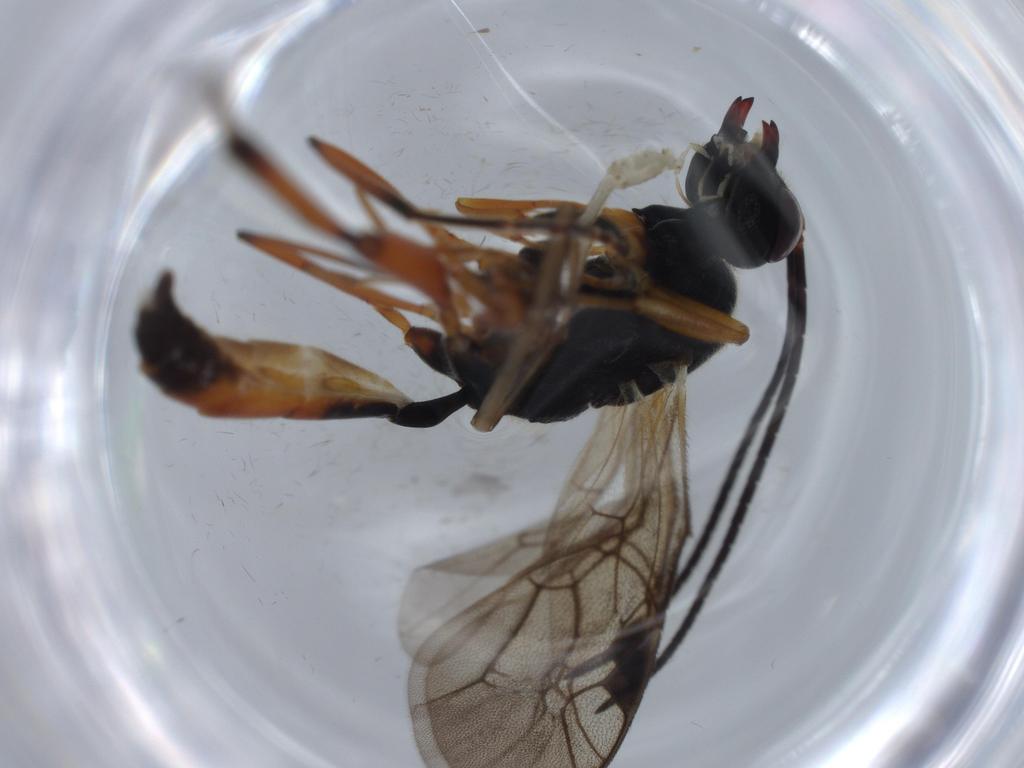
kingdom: Animalia
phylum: Arthropoda
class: Insecta
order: Hymenoptera
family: Ichneumonidae
